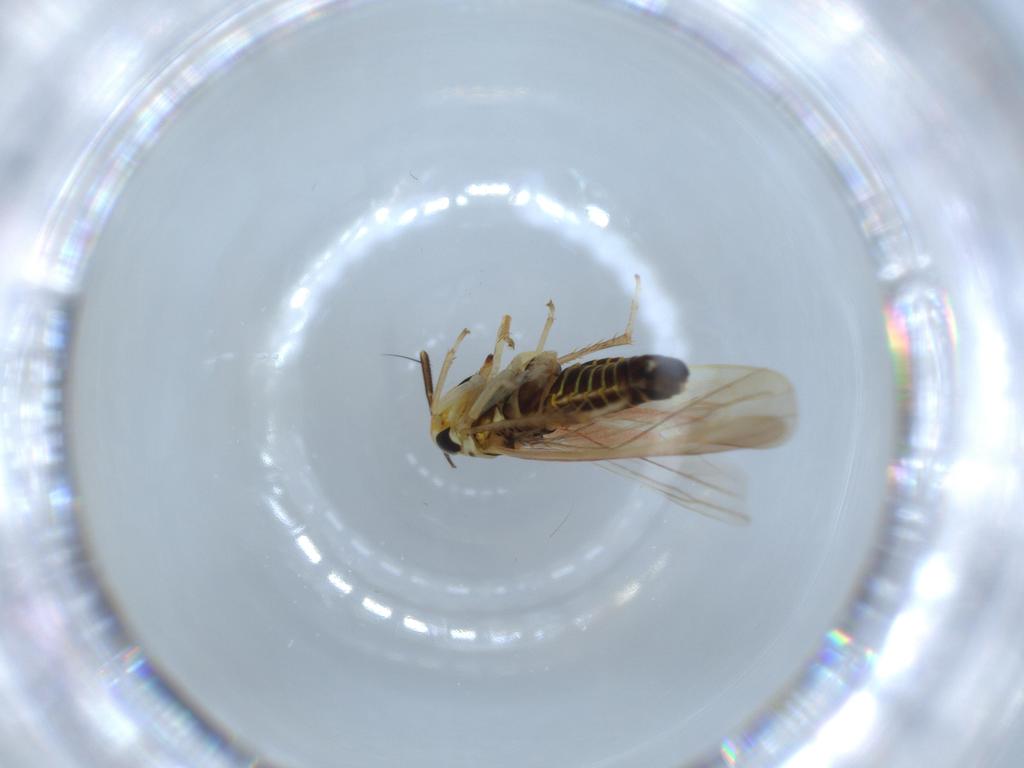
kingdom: Animalia
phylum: Arthropoda
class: Insecta
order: Hemiptera
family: Cicadellidae
